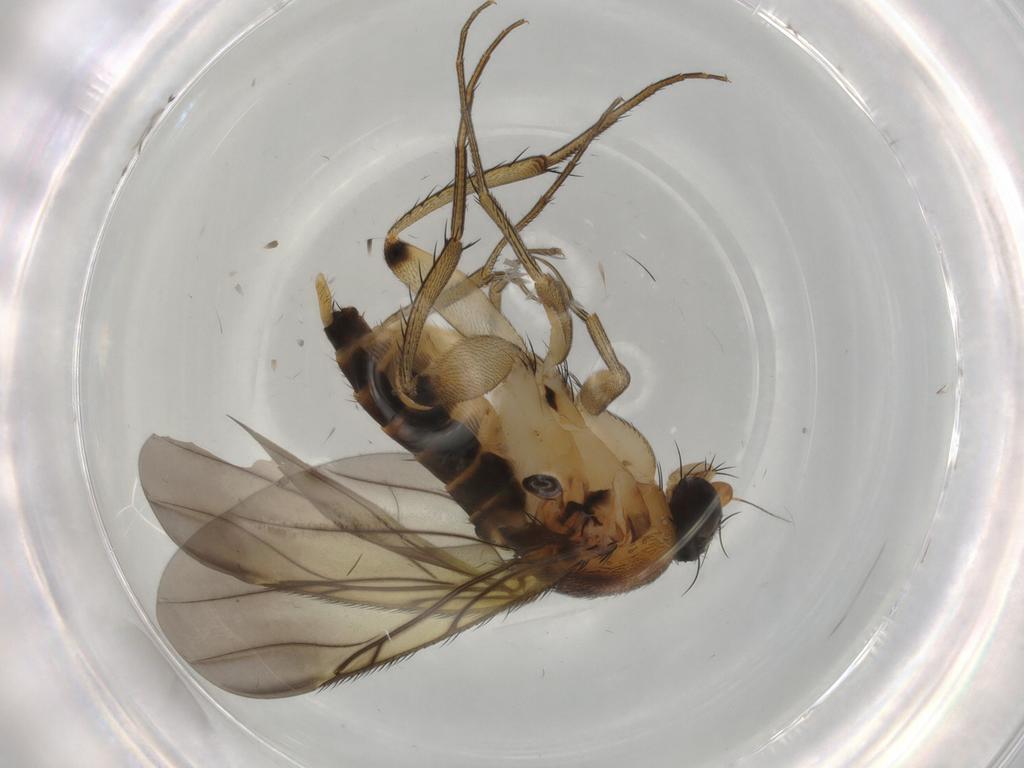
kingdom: Animalia
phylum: Arthropoda
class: Insecta
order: Diptera
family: Phoridae
